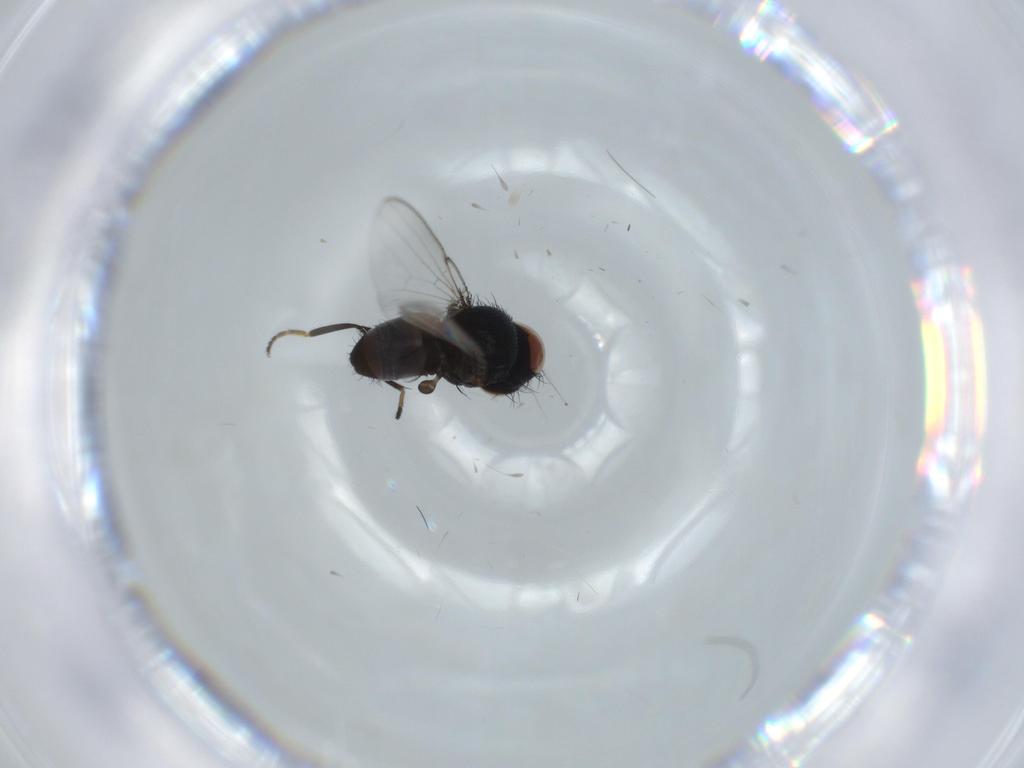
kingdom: Animalia
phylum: Arthropoda
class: Insecta
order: Diptera
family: Milichiidae
